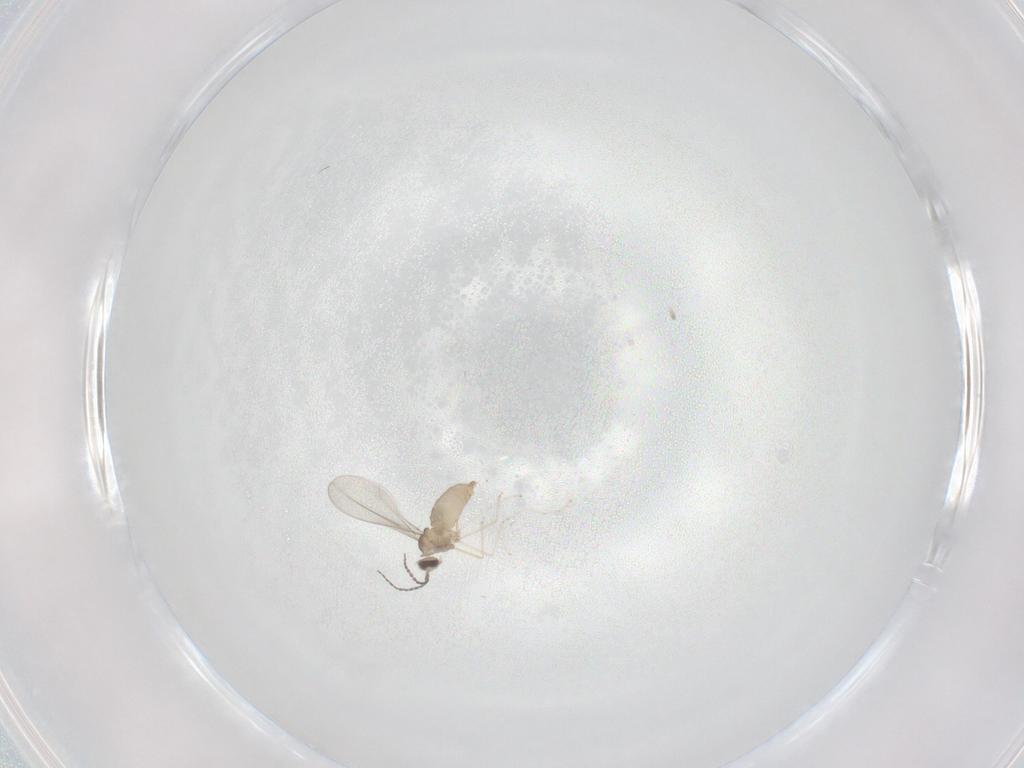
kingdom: Animalia
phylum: Arthropoda
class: Insecta
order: Diptera
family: Cecidomyiidae
